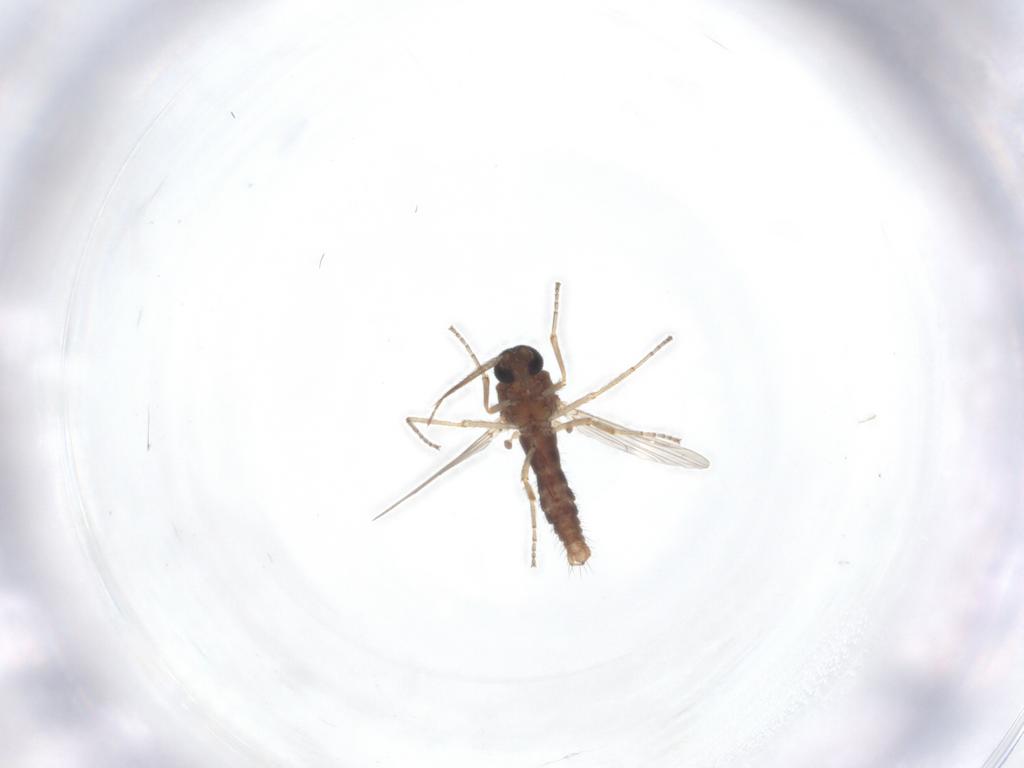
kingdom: Animalia
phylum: Arthropoda
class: Insecta
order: Diptera
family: Ceratopogonidae
